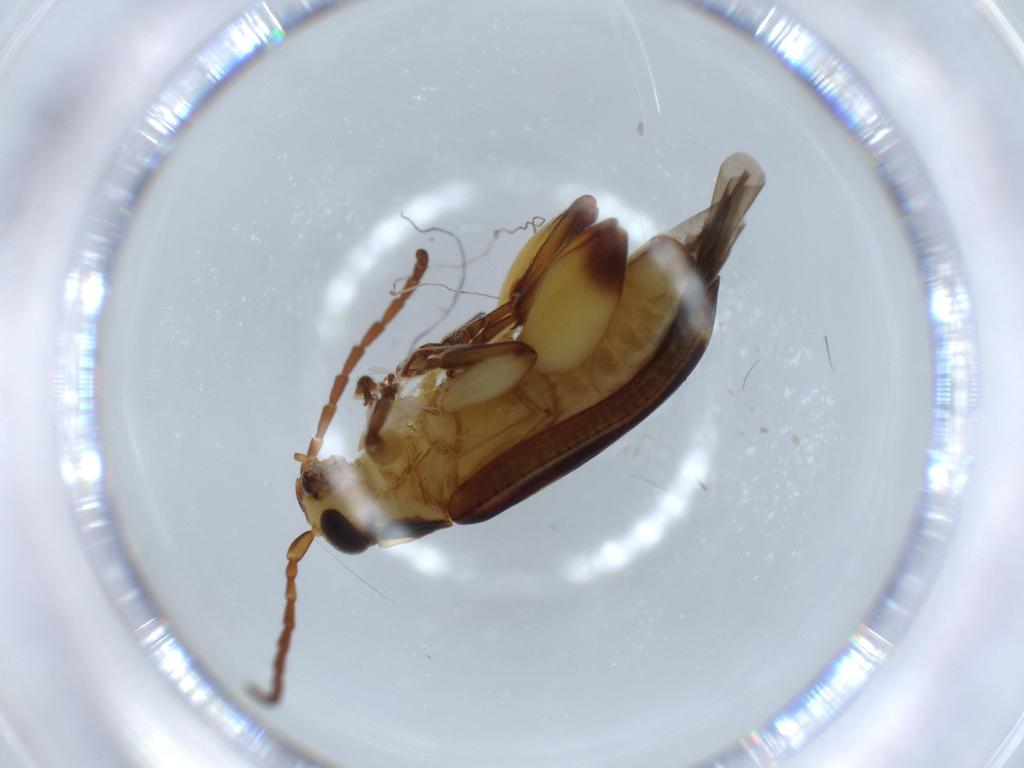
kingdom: Animalia
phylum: Arthropoda
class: Insecta
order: Coleoptera
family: Chrysomelidae
